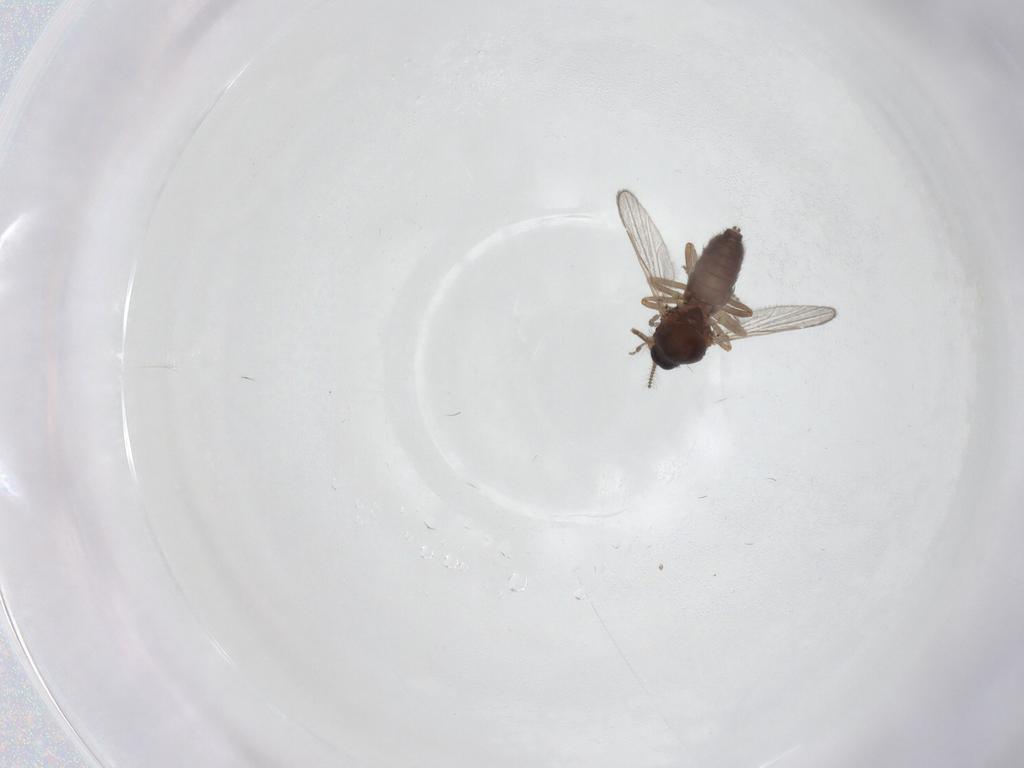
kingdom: Animalia
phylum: Arthropoda
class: Insecta
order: Diptera
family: Ceratopogonidae
